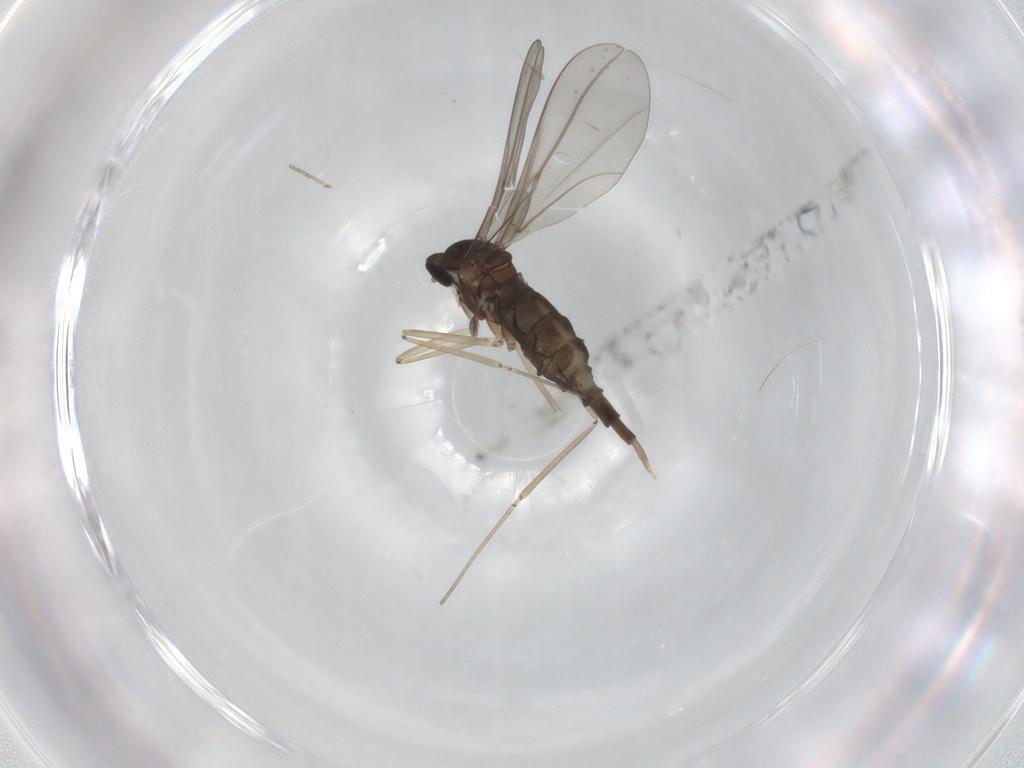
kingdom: Animalia
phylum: Arthropoda
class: Insecta
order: Diptera
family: Cecidomyiidae
